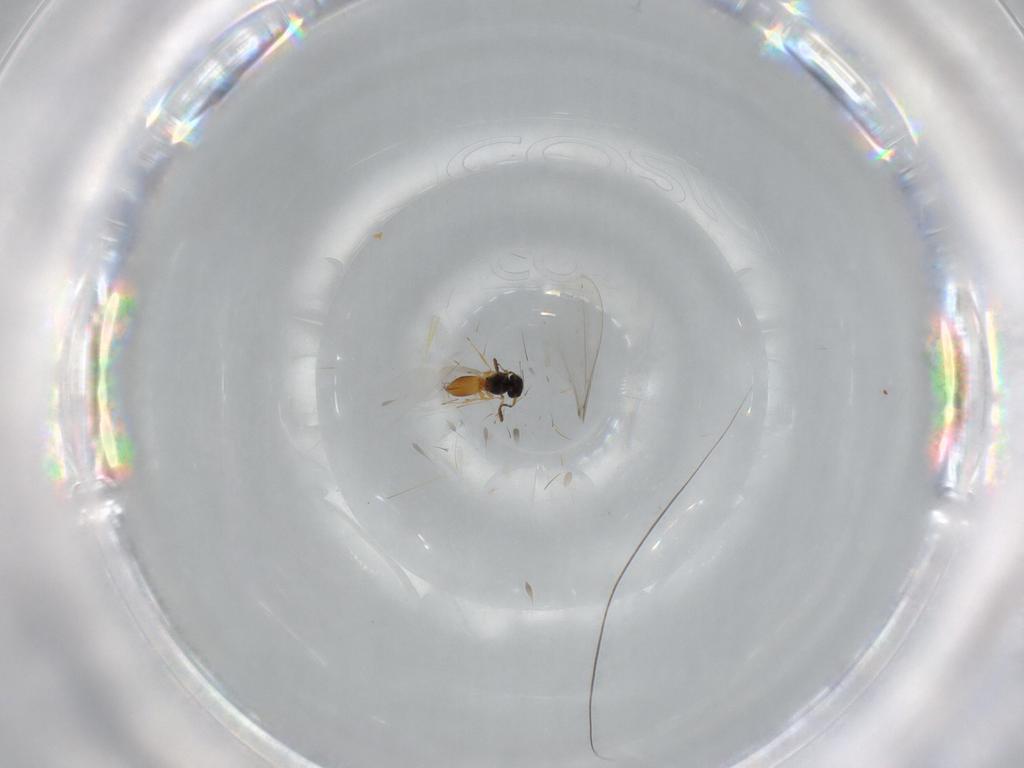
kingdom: Animalia
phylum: Arthropoda
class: Insecta
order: Hymenoptera
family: Scelionidae
